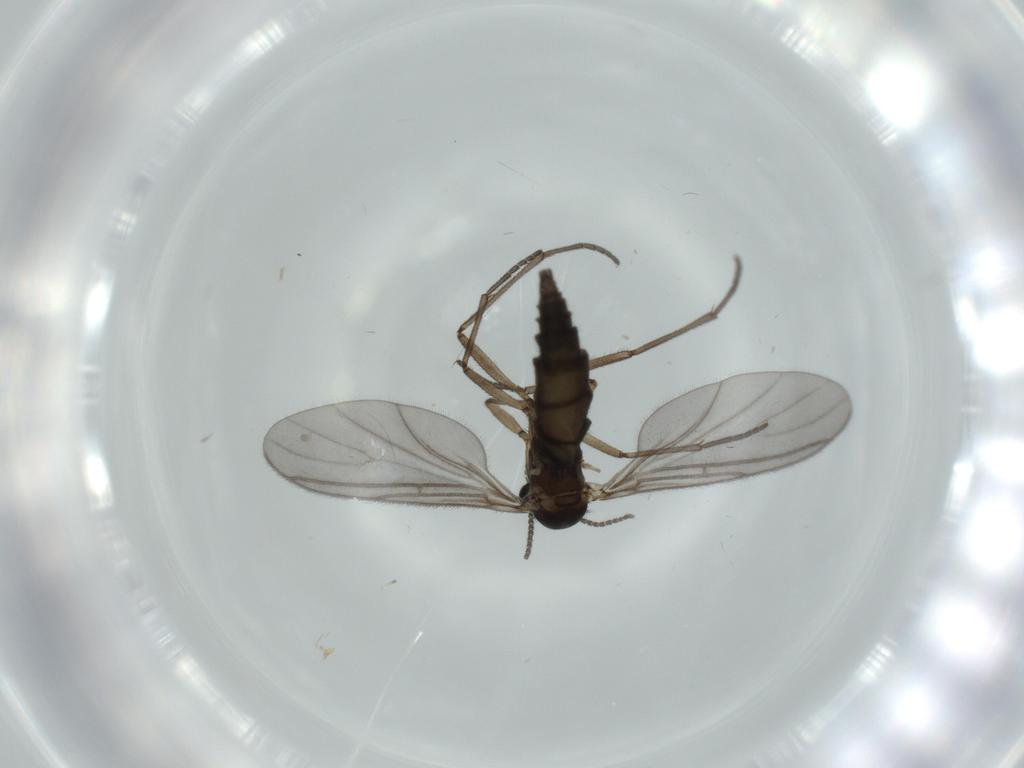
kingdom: Animalia
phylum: Arthropoda
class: Insecta
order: Diptera
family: Sciaridae
